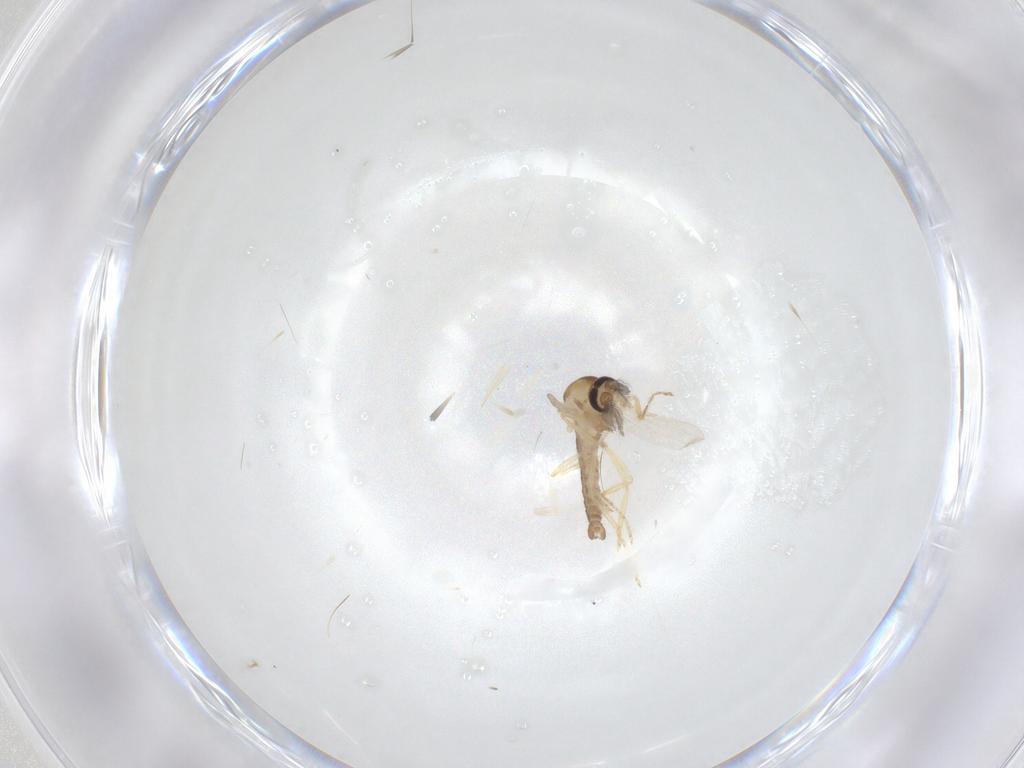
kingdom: Animalia
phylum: Arthropoda
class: Insecta
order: Diptera
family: Ceratopogonidae
